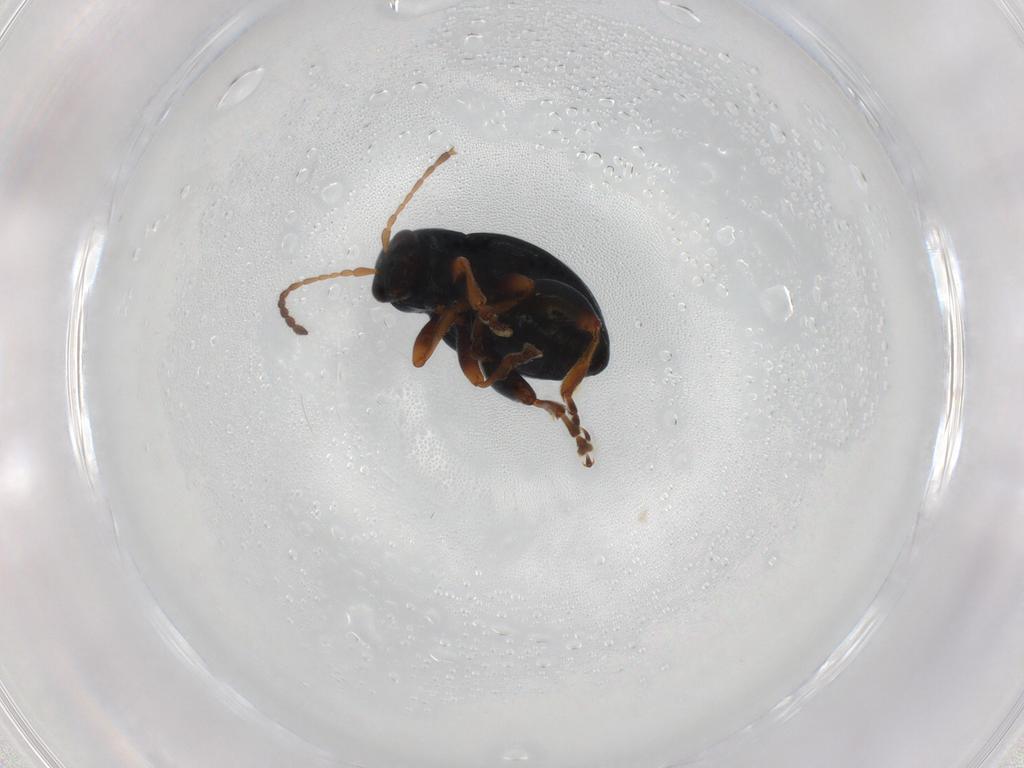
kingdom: Animalia
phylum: Arthropoda
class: Insecta
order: Coleoptera
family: Chrysomelidae
